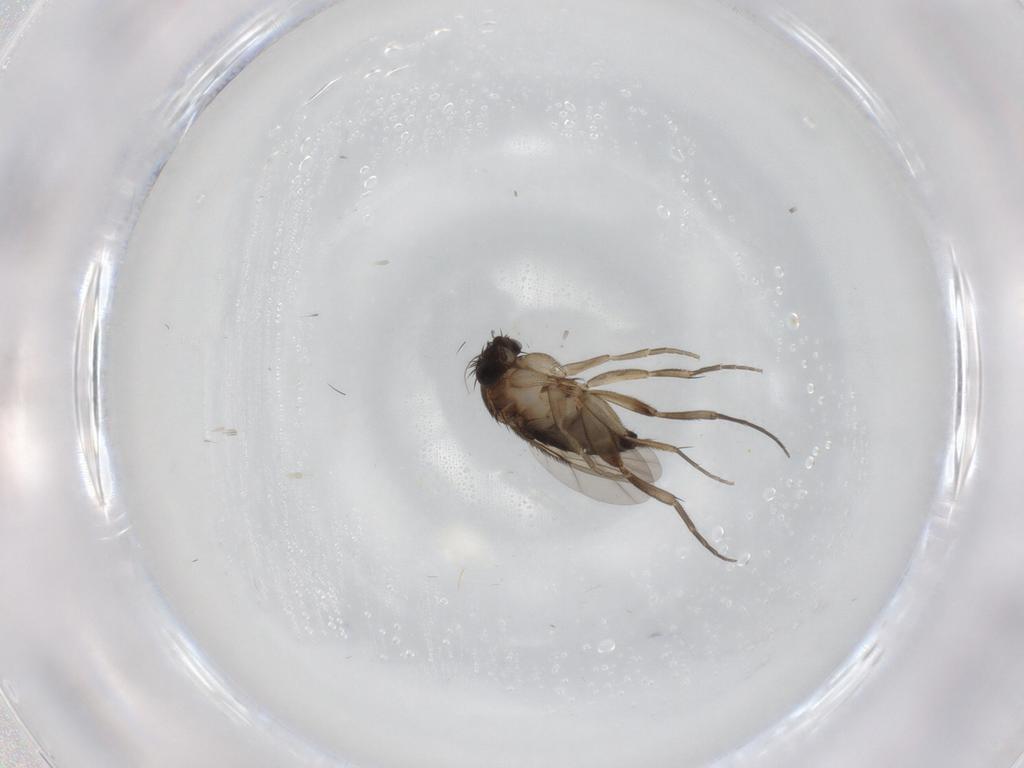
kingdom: Animalia
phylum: Arthropoda
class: Insecta
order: Diptera
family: Phoridae
